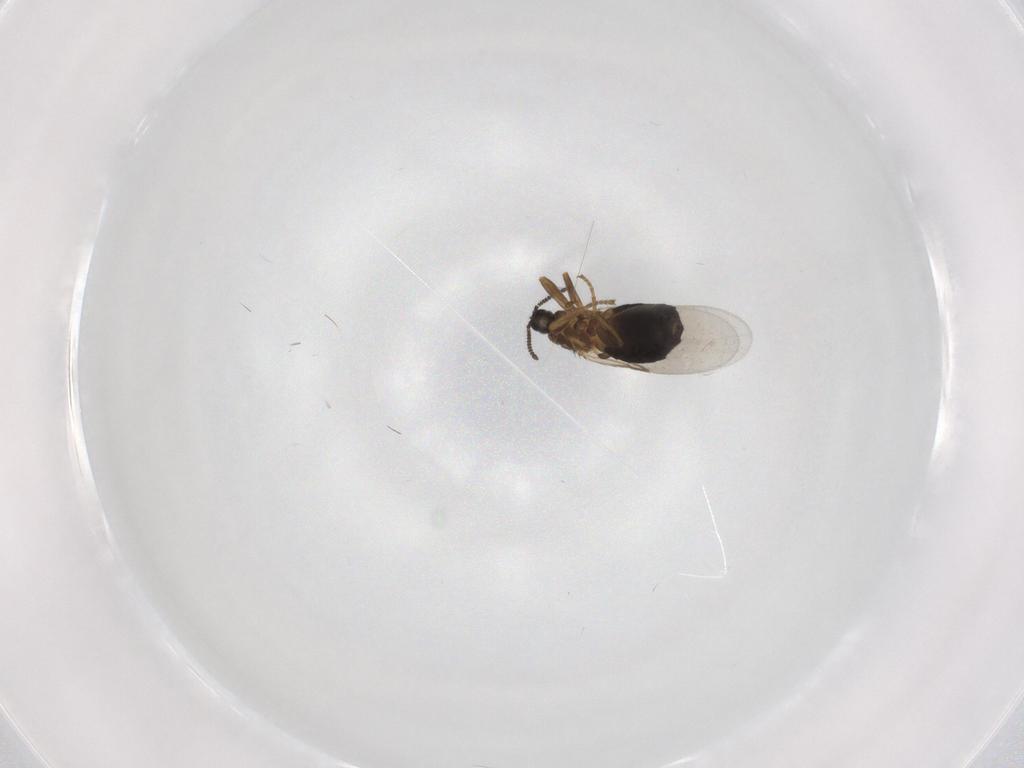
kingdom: Animalia
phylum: Arthropoda
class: Insecta
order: Diptera
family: Scatopsidae
